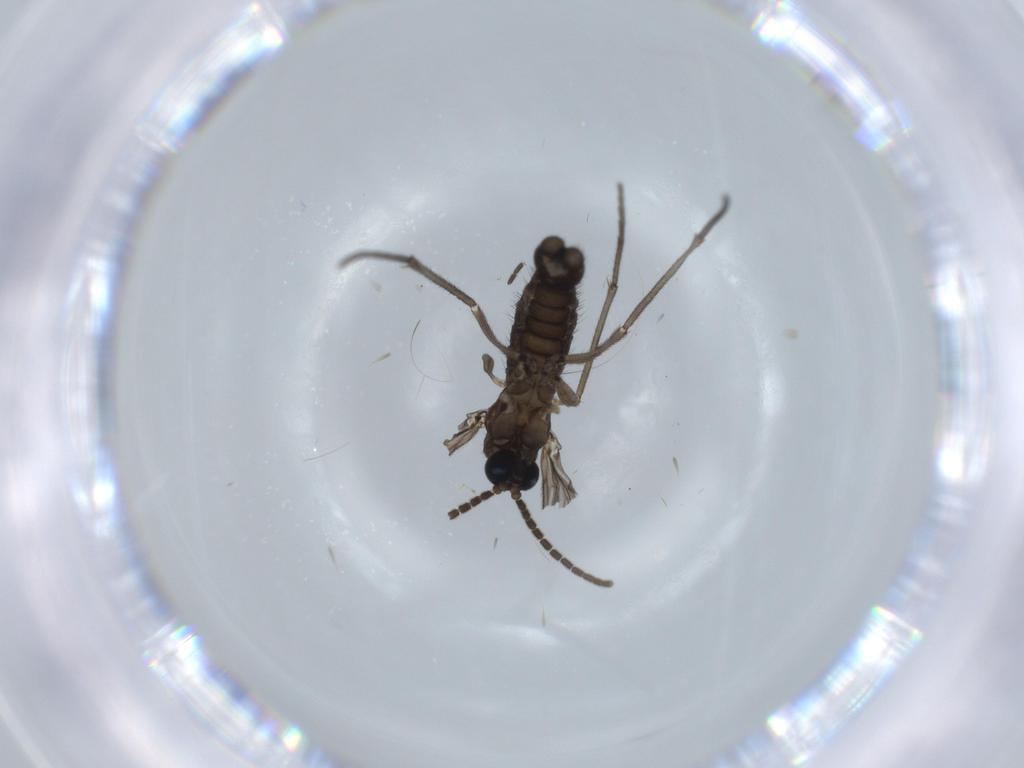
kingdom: Animalia
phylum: Arthropoda
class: Insecta
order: Diptera
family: Sciaridae
